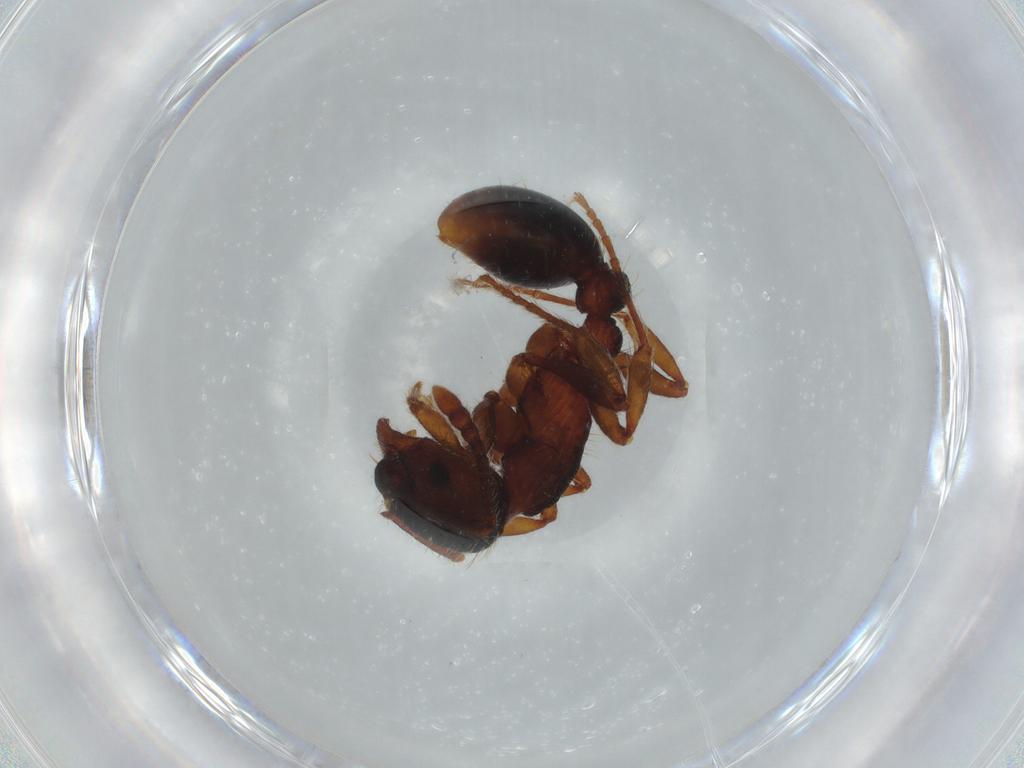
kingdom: Animalia
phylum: Arthropoda
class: Insecta
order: Hymenoptera
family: Formicidae
